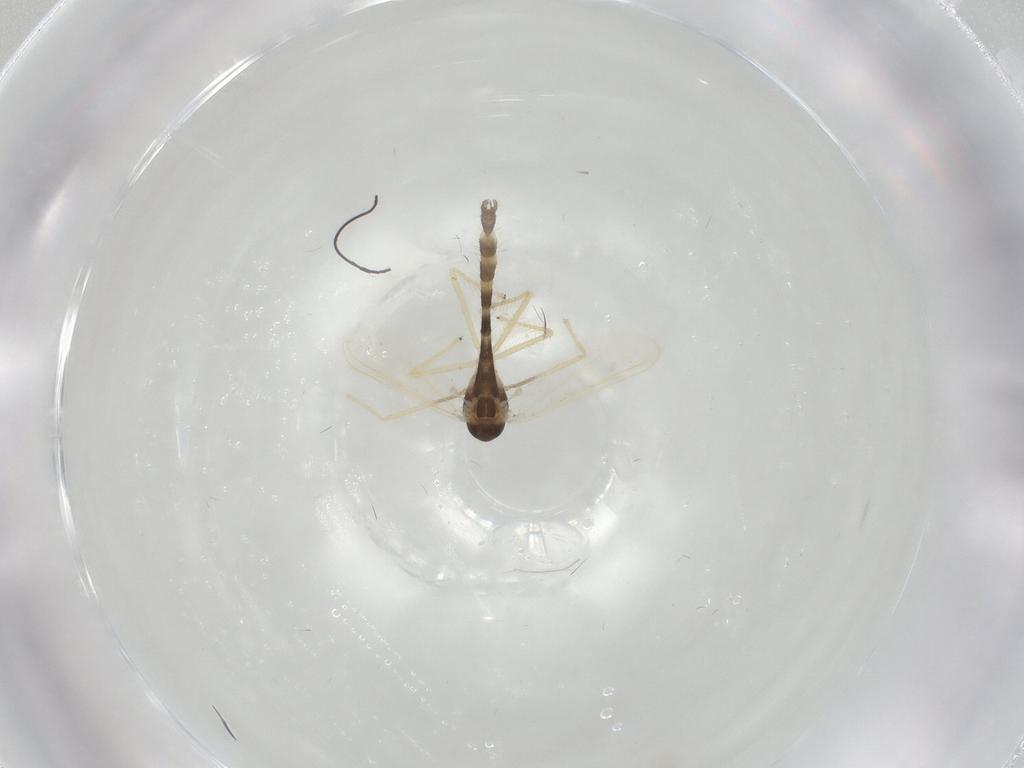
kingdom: Animalia
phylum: Arthropoda
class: Insecta
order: Diptera
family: Chironomidae
